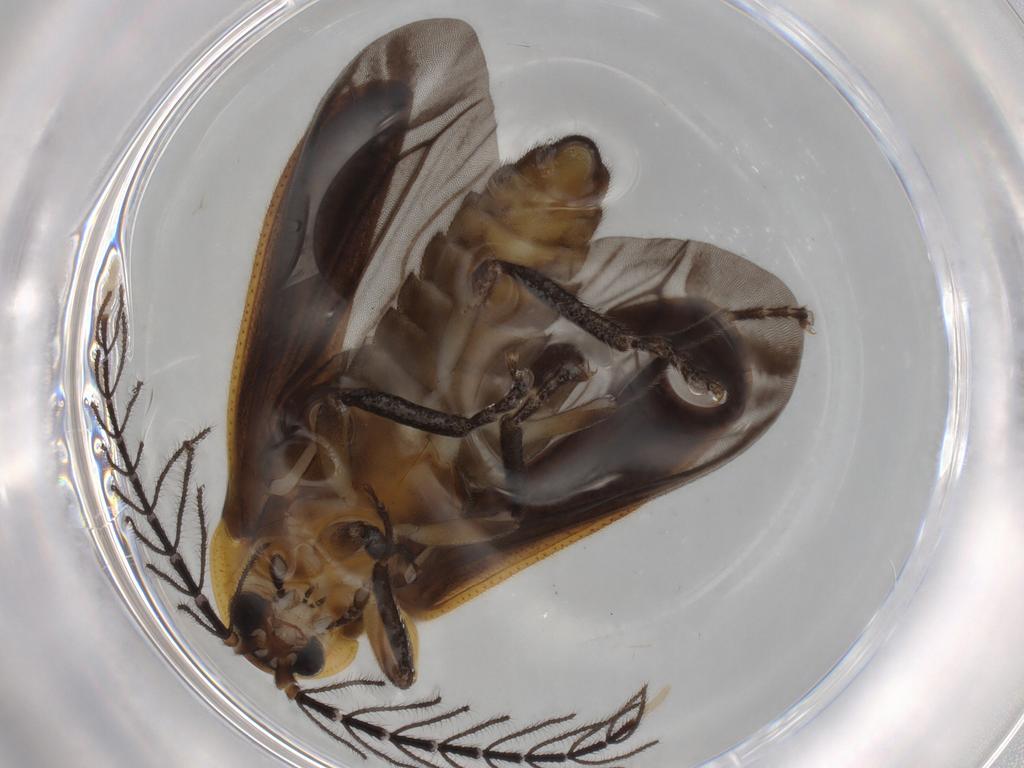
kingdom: Animalia
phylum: Arthropoda
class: Insecta
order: Coleoptera
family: Lampyridae
